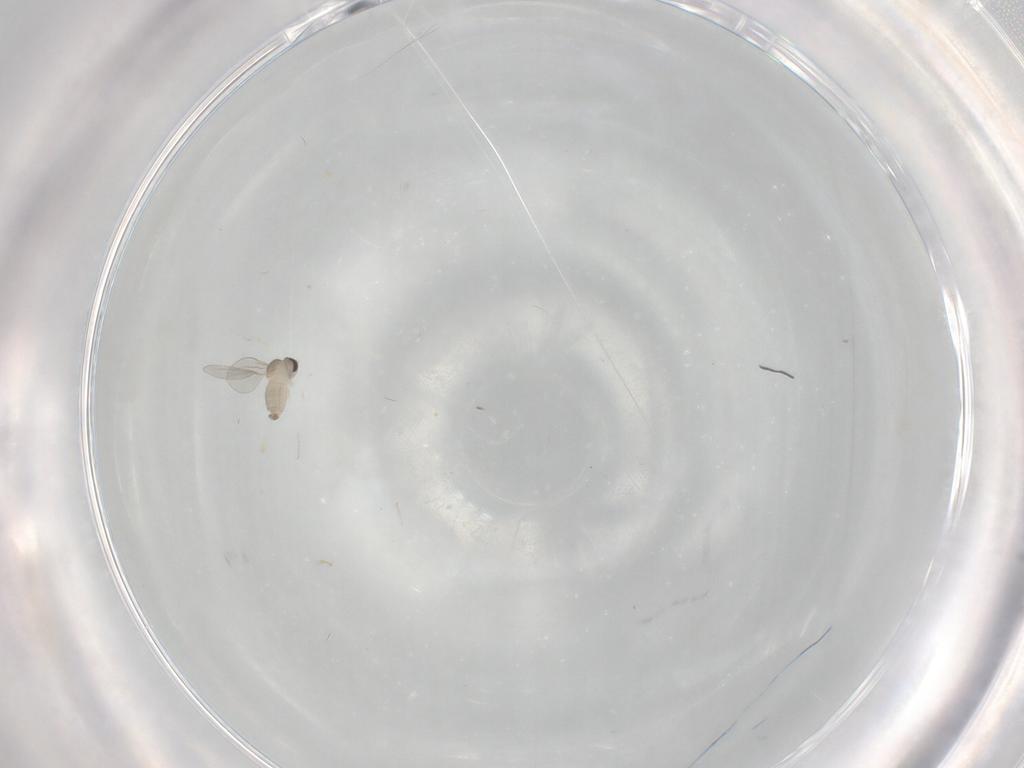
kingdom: Animalia
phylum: Arthropoda
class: Insecta
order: Diptera
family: Cecidomyiidae
